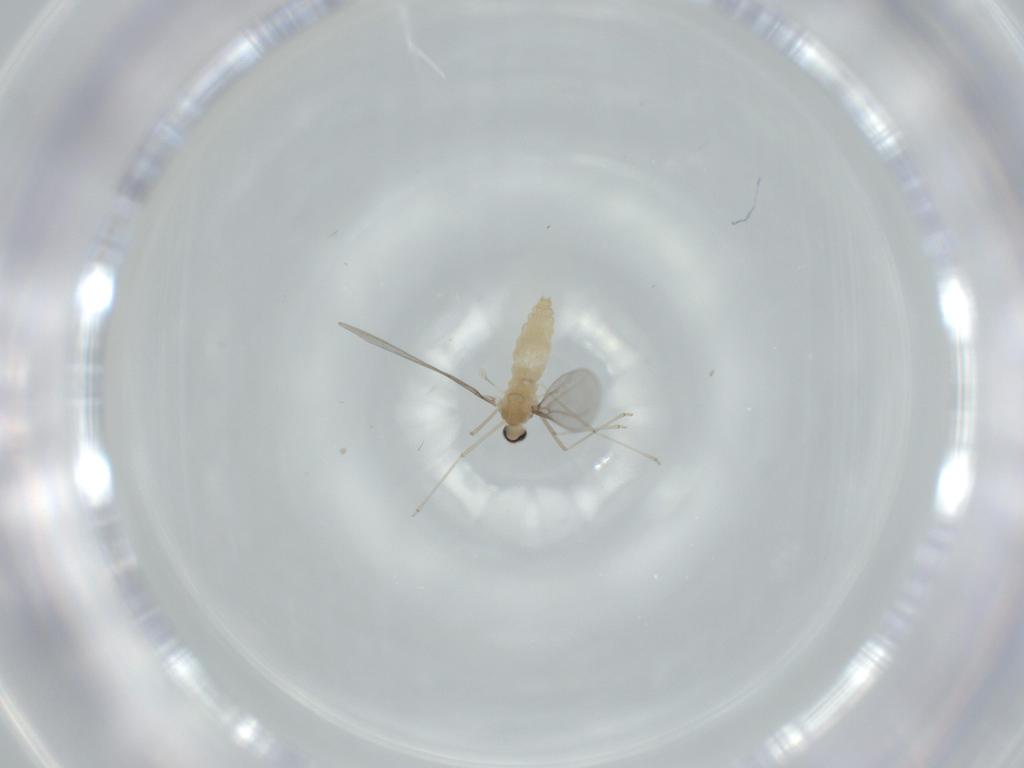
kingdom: Animalia
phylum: Arthropoda
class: Insecta
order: Diptera
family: Cecidomyiidae
